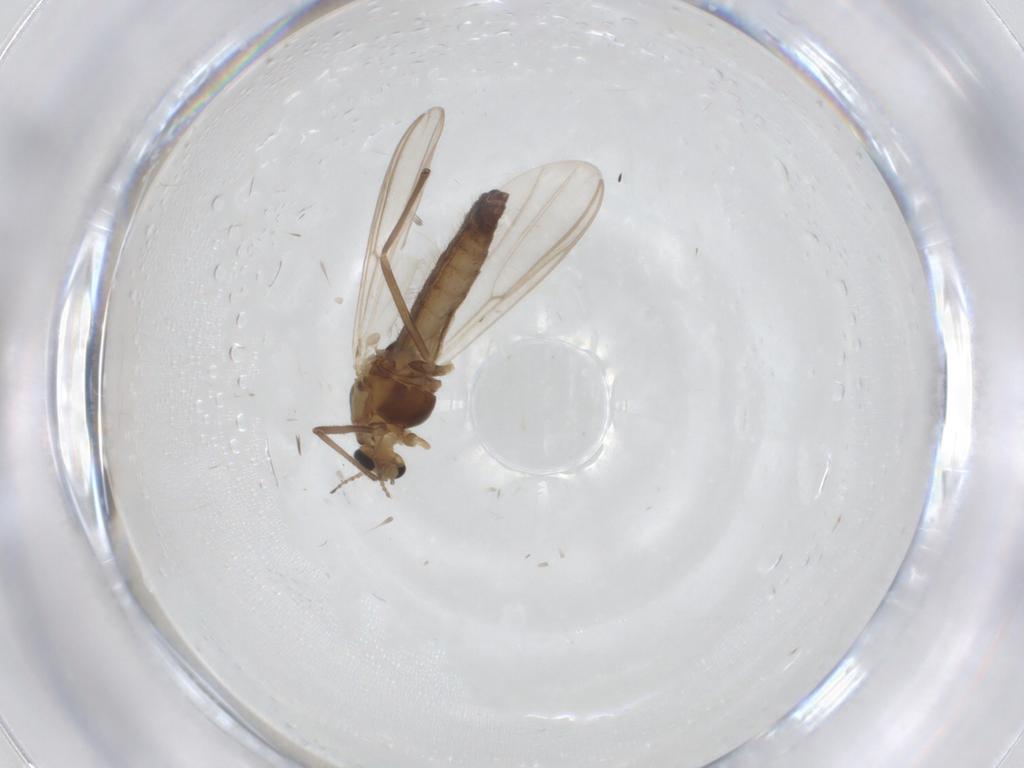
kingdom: Animalia
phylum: Arthropoda
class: Insecta
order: Diptera
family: Chironomidae
